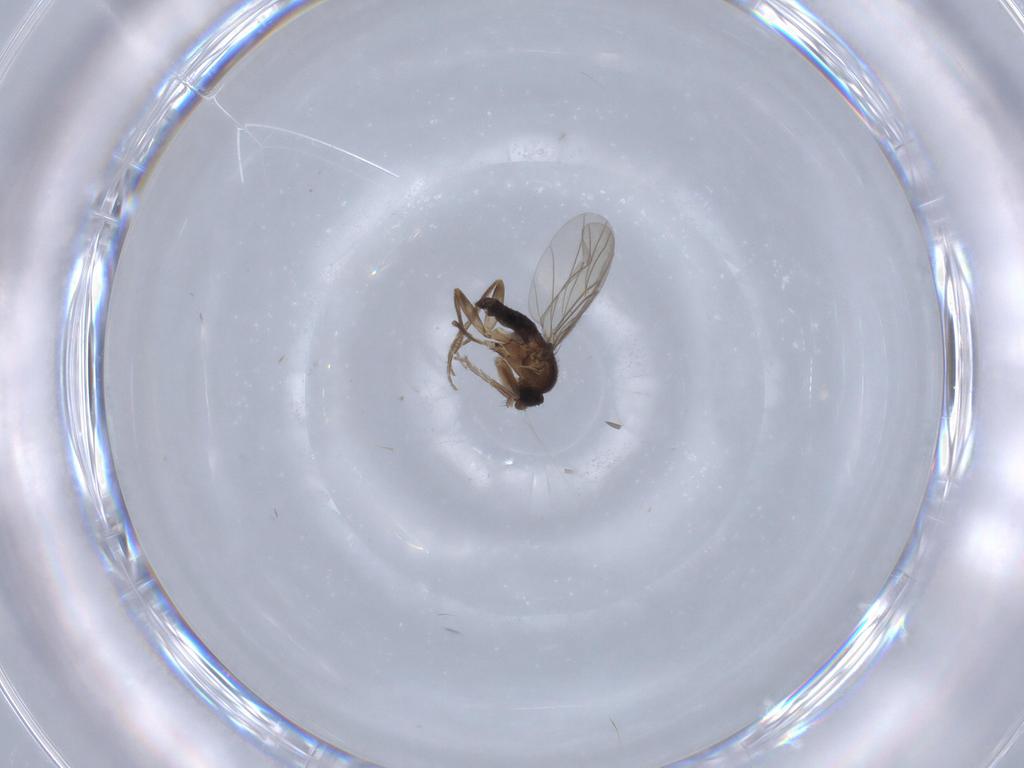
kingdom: Animalia
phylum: Arthropoda
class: Insecta
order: Diptera
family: Phoridae
